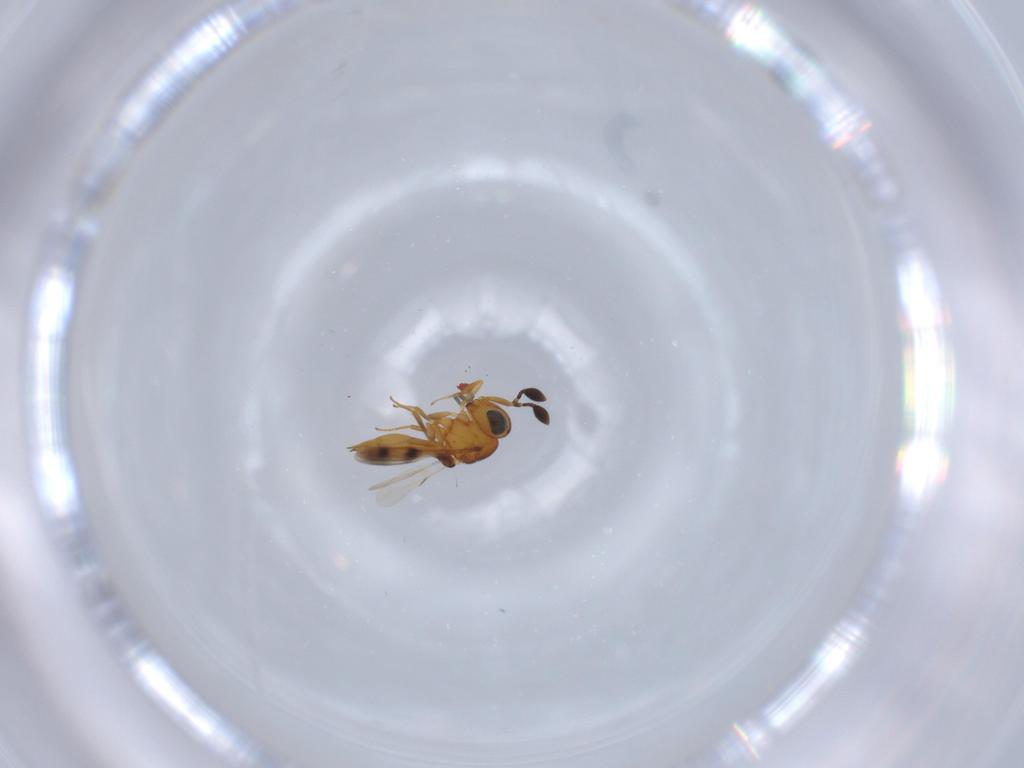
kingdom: Animalia
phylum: Arthropoda
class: Insecta
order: Hymenoptera
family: Scelionidae
